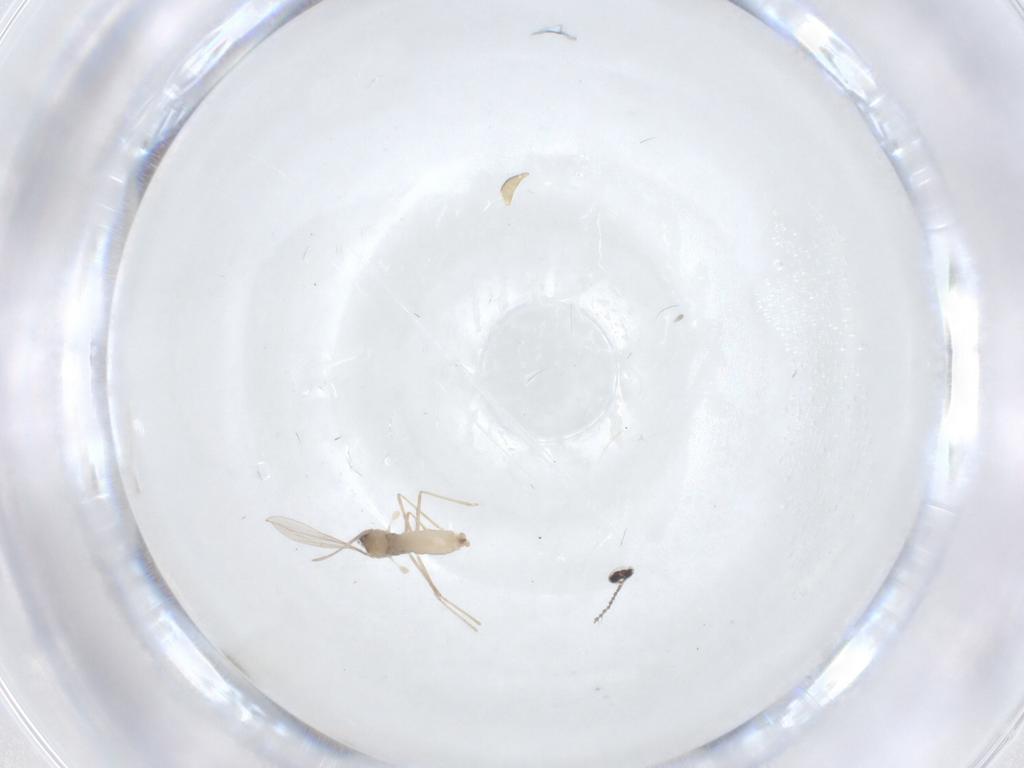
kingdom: Animalia
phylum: Arthropoda
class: Insecta
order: Diptera
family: Cecidomyiidae
